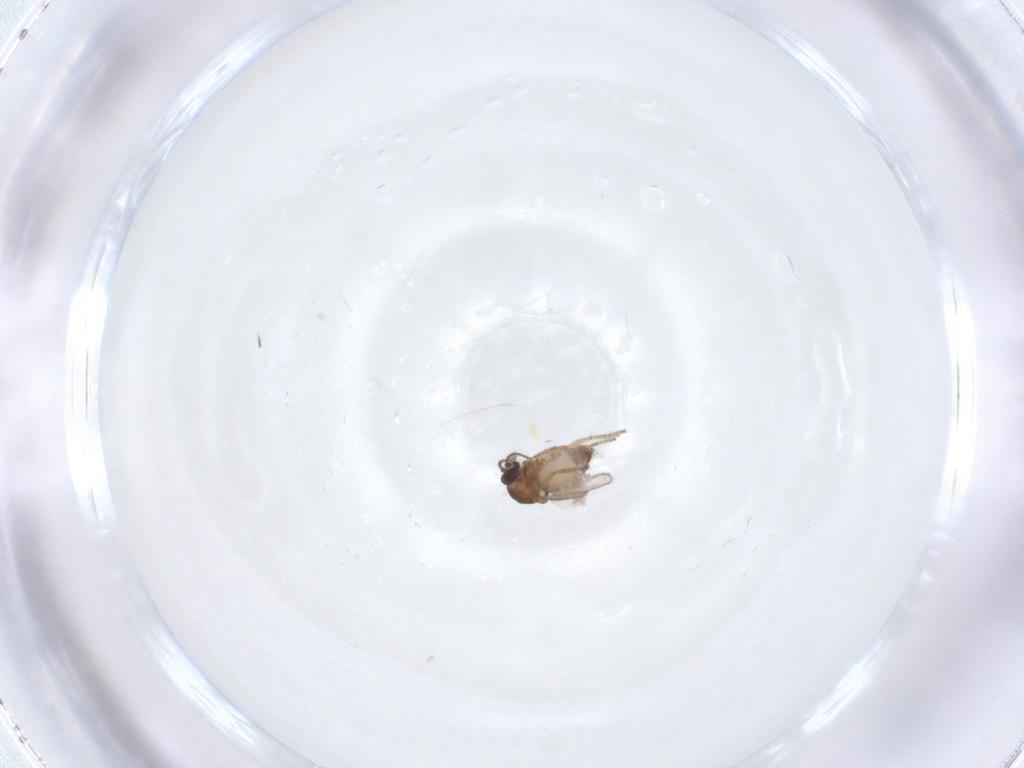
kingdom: Animalia
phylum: Arthropoda
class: Insecta
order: Diptera
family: Ceratopogonidae
